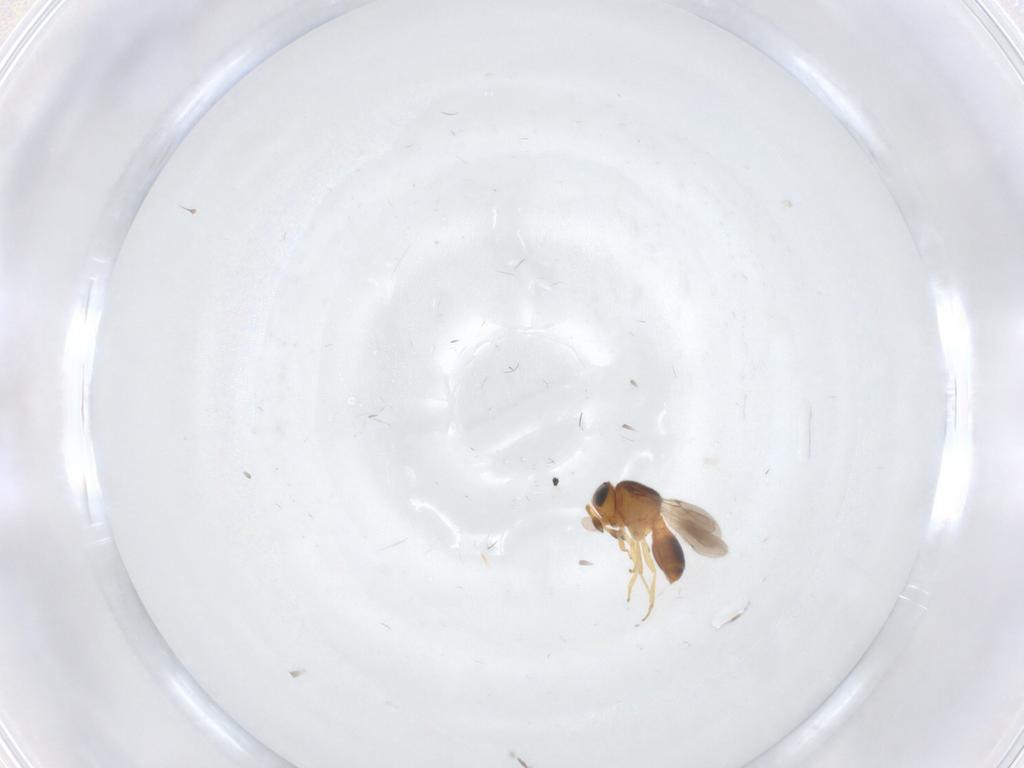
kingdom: Animalia
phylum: Arthropoda
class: Insecta
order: Hymenoptera
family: Scelionidae
